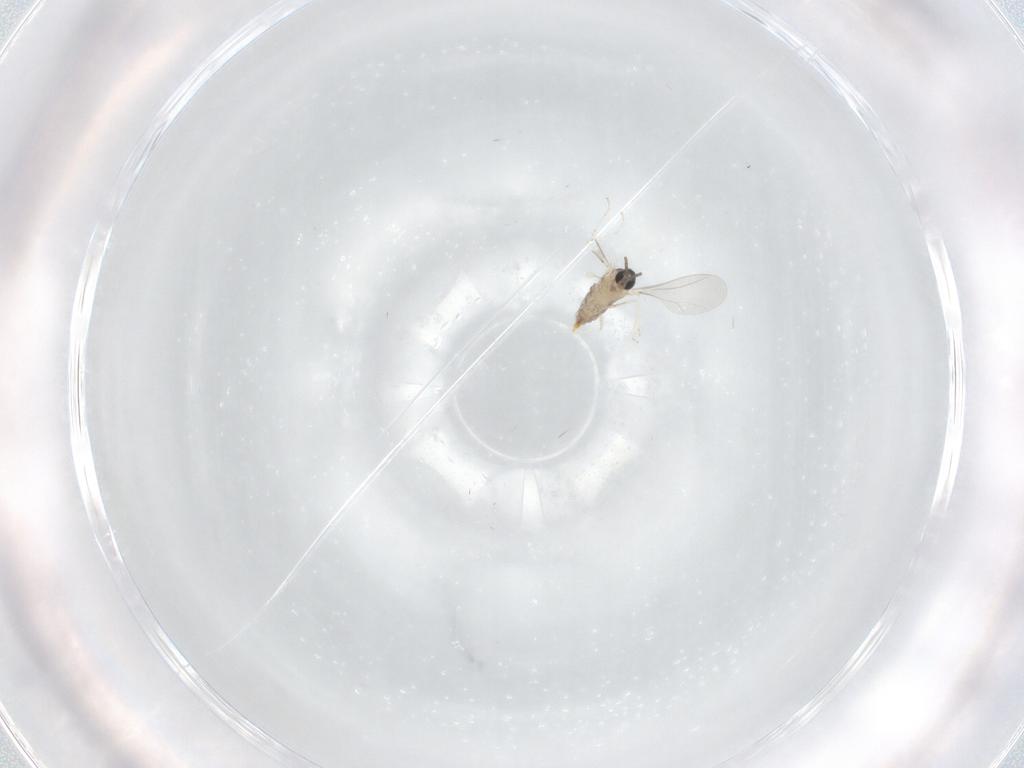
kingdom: Animalia
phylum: Arthropoda
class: Insecta
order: Diptera
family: Cecidomyiidae
